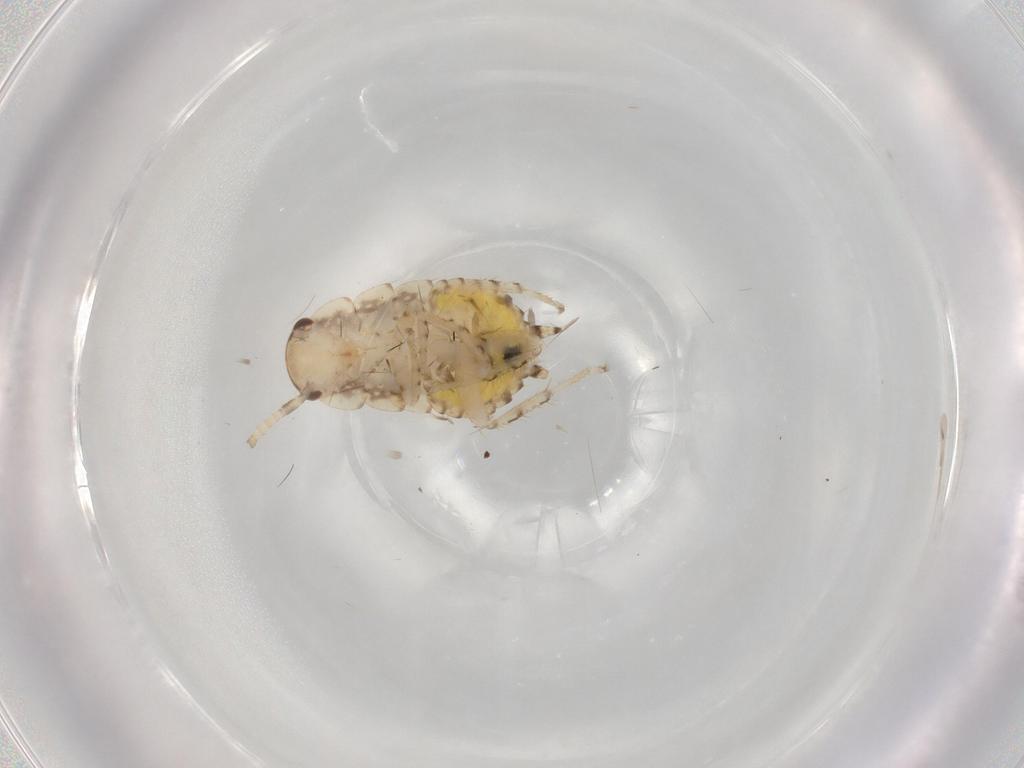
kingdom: Animalia
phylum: Arthropoda
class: Insecta
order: Blattodea
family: Ectobiidae
